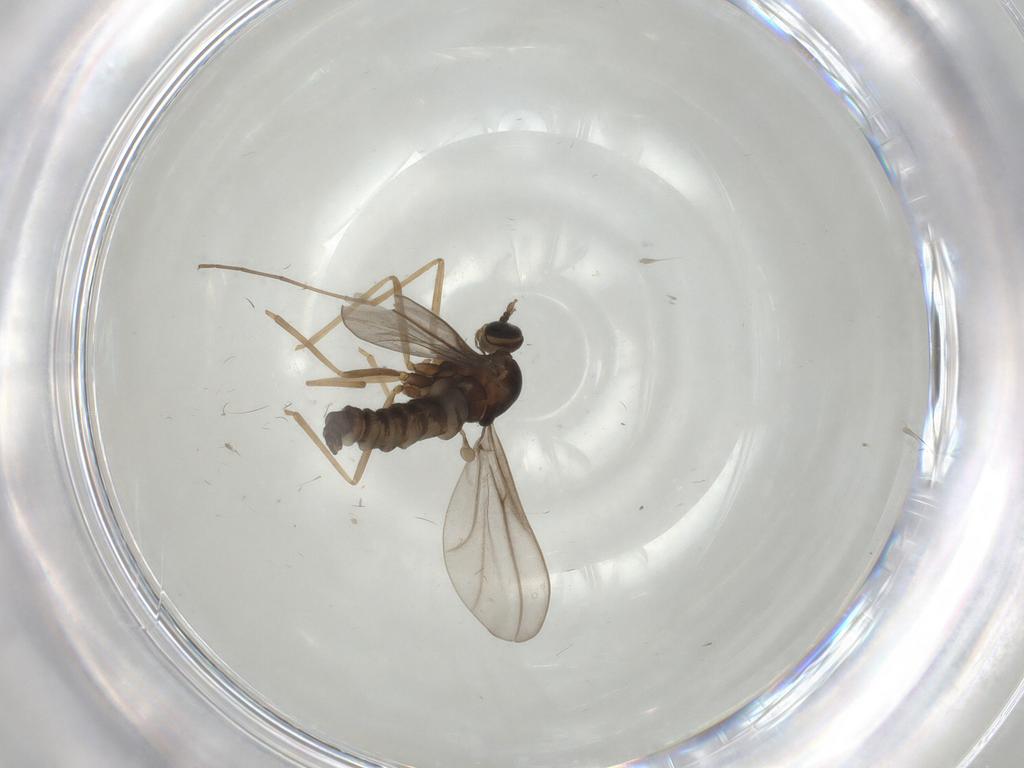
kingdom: Animalia
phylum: Arthropoda
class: Insecta
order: Diptera
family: Cecidomyiidae
